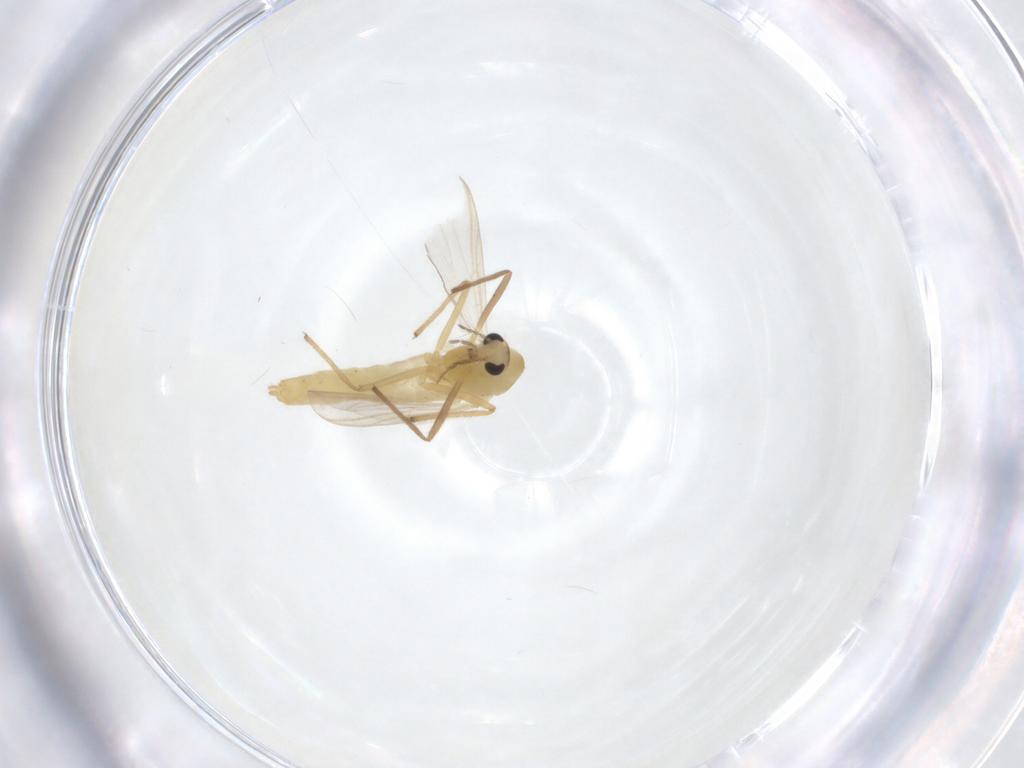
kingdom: Animalia
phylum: Arthropoda
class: Insecta
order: Diptera
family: Chironomidae
